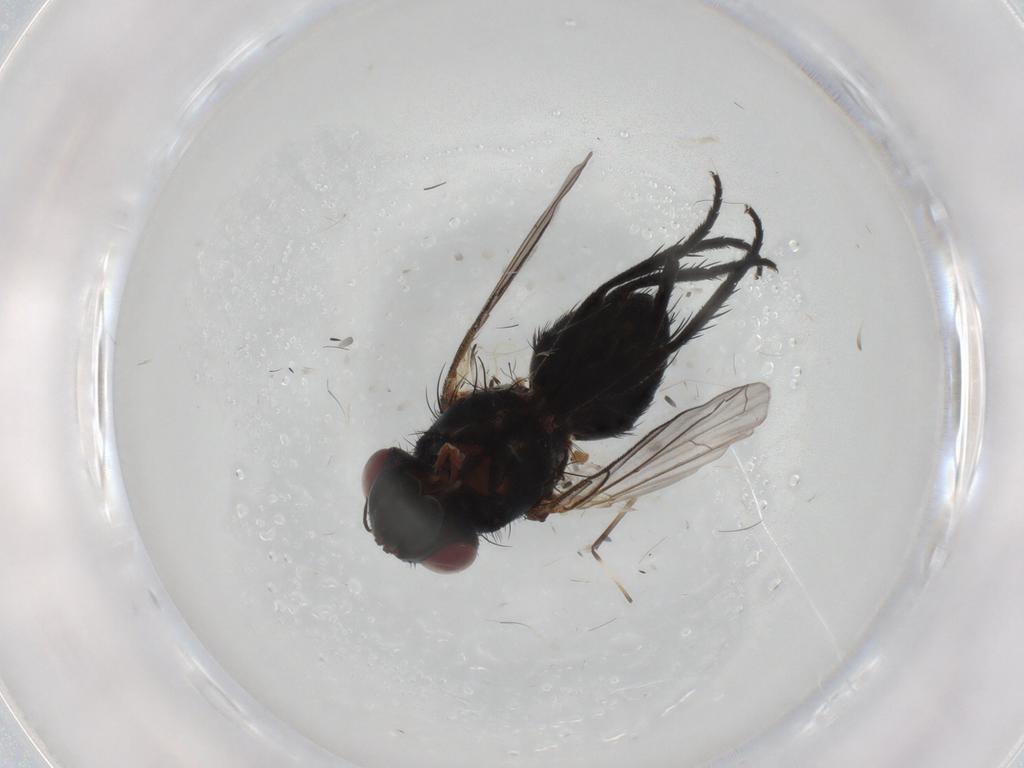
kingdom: Animalia
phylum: Arthropoda
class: Insecta
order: Diptera
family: Tachinidae
